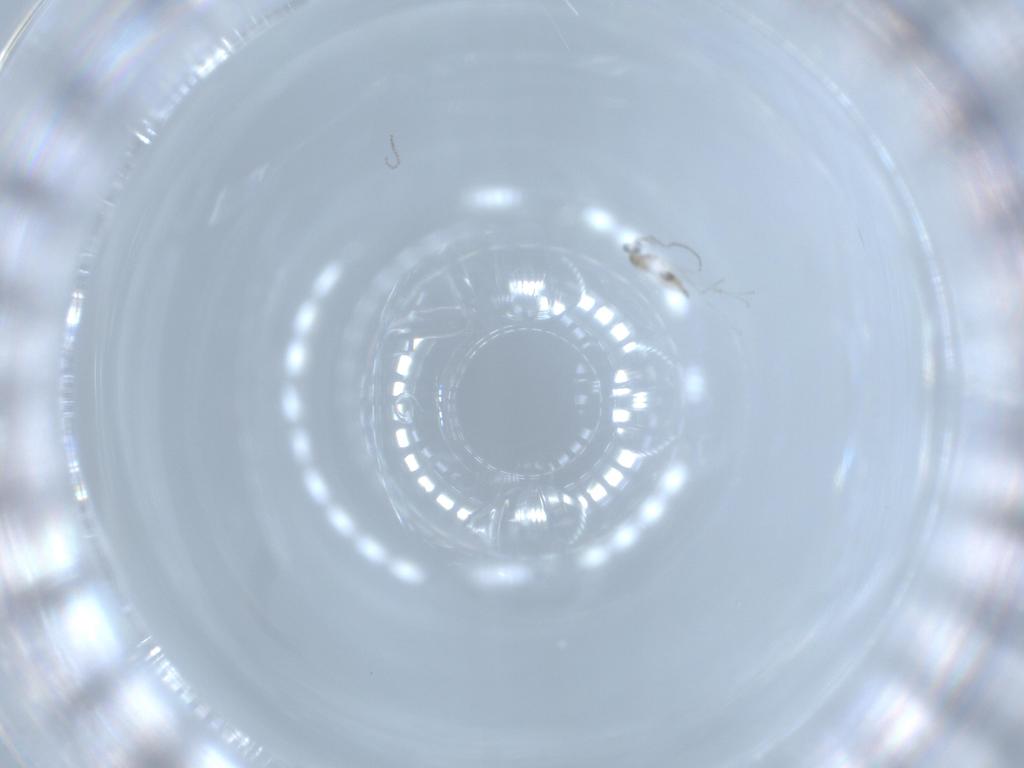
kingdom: Animalia
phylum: Arthropoda
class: Insecta
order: Diptera
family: Cecidomyiidae
